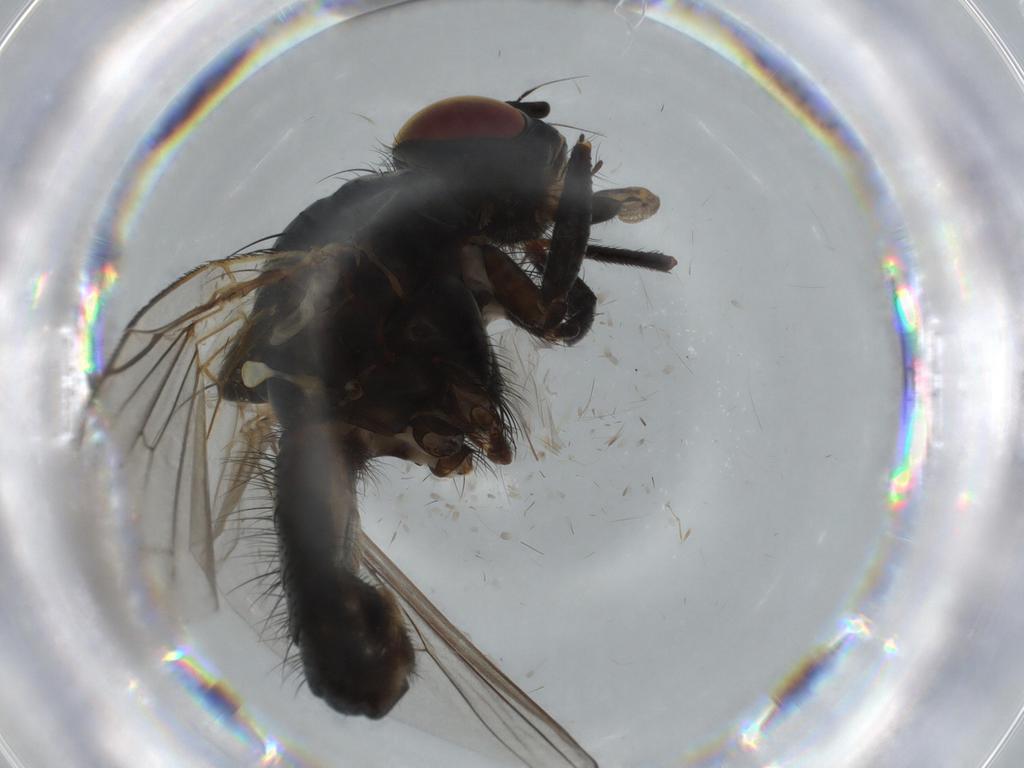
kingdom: Animalia
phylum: Arthropoda
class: Insecta
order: Diptera
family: Anthomyiidae
